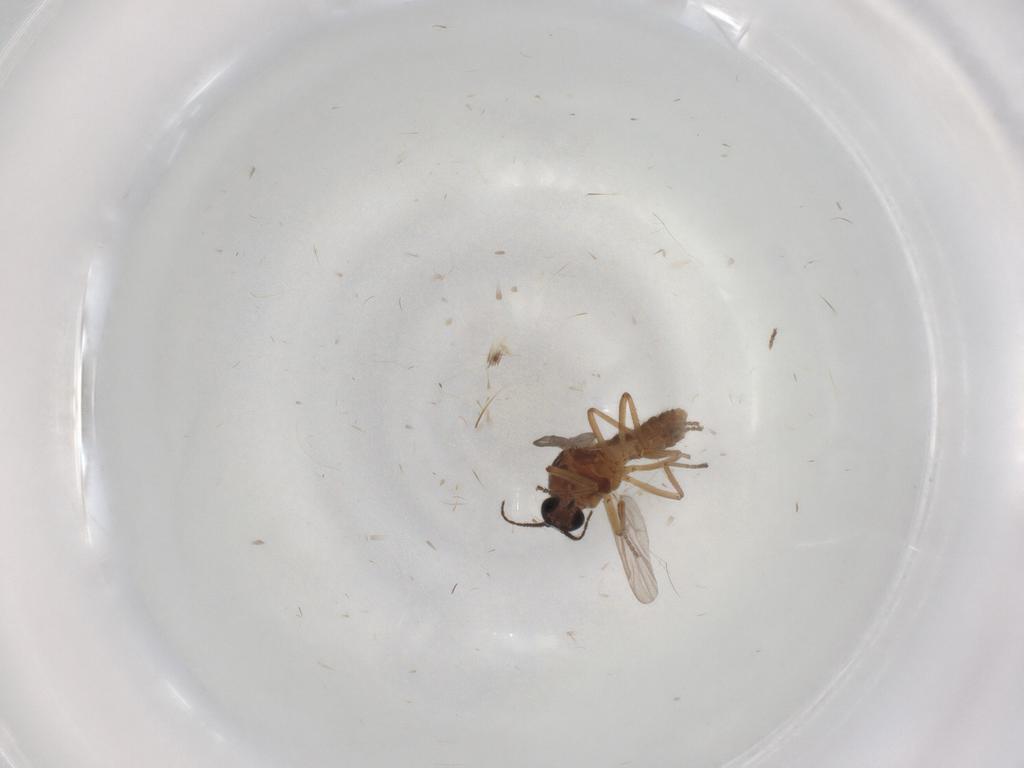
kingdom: Animalia
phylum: Arthropoda
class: Insecta
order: Diptera
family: Ceratopogonidae
